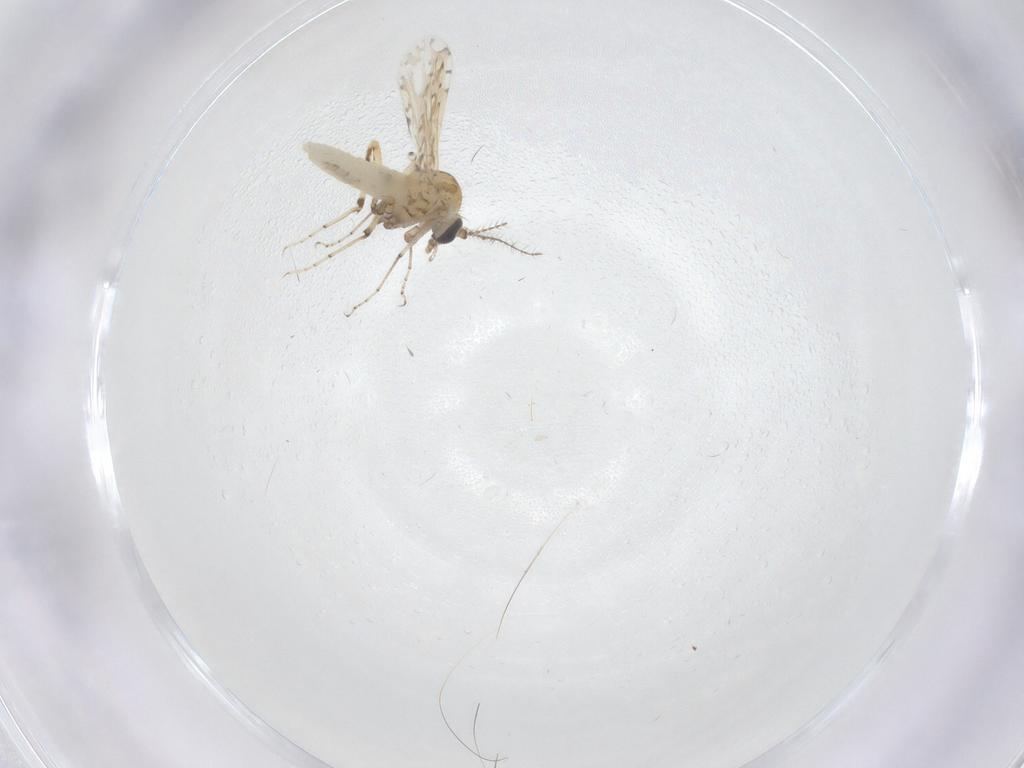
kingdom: Animalia
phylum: Arthropoda
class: Insecta
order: Diptera
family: Ceratopogonidae
